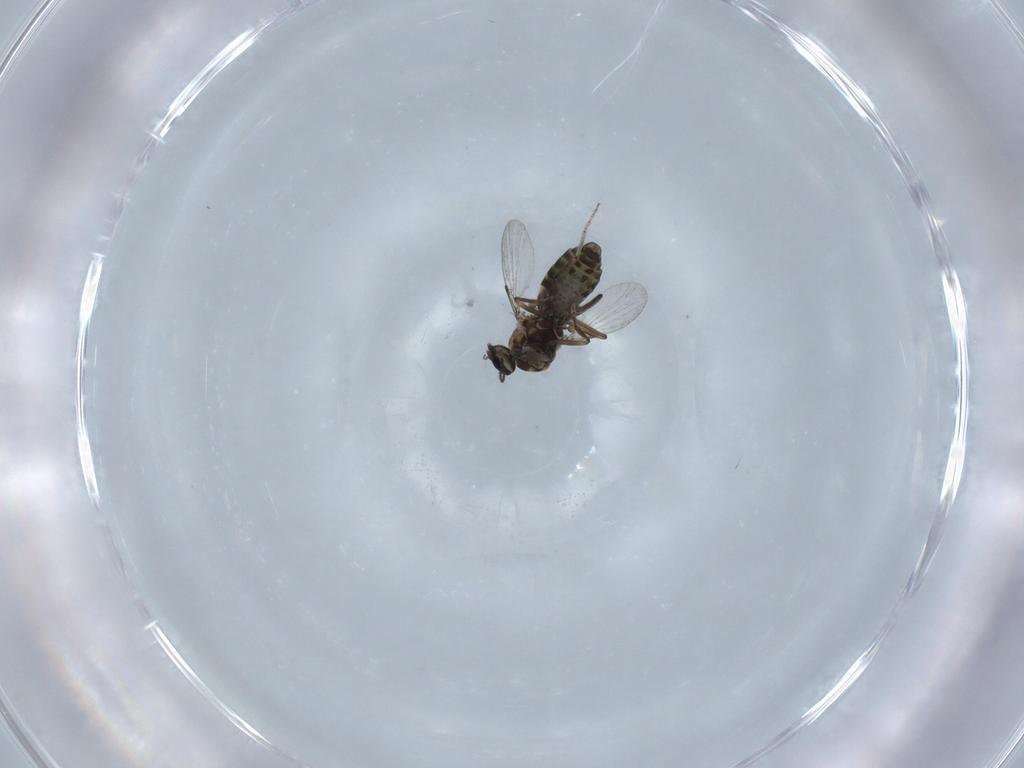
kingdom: Animalia
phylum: Arthropoda
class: Insecta
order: Diptera
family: Ceratopogonidae
